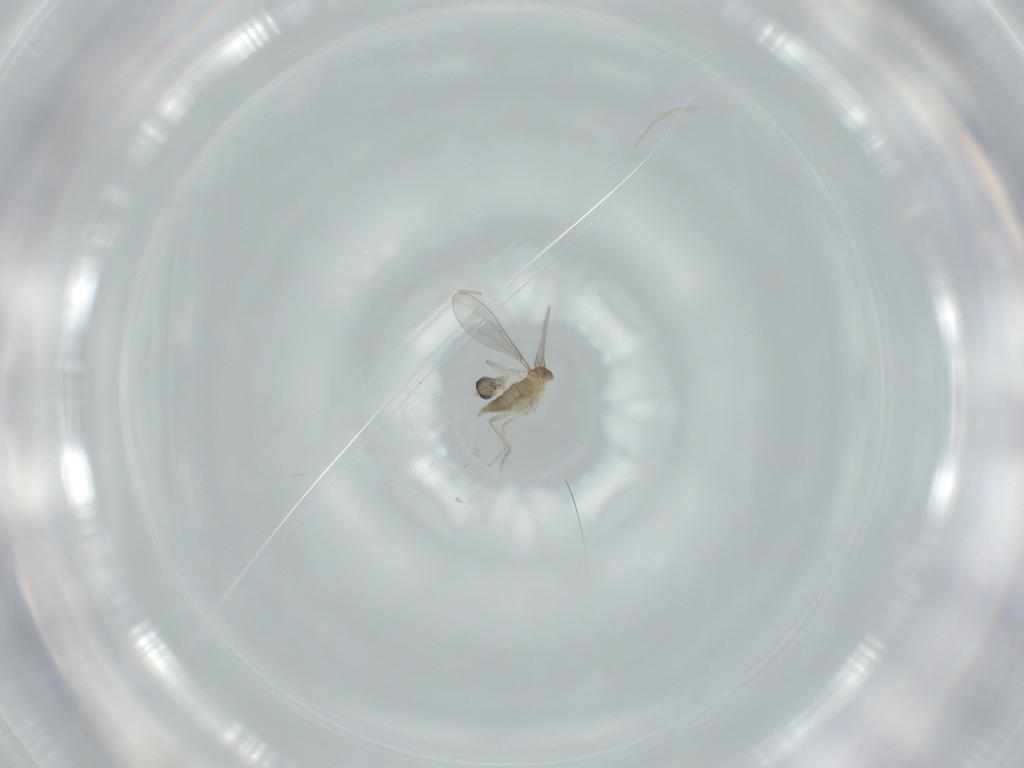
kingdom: Animalia
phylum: Arthropoda
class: Insecta
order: Diptera
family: Cecidomyiidae
